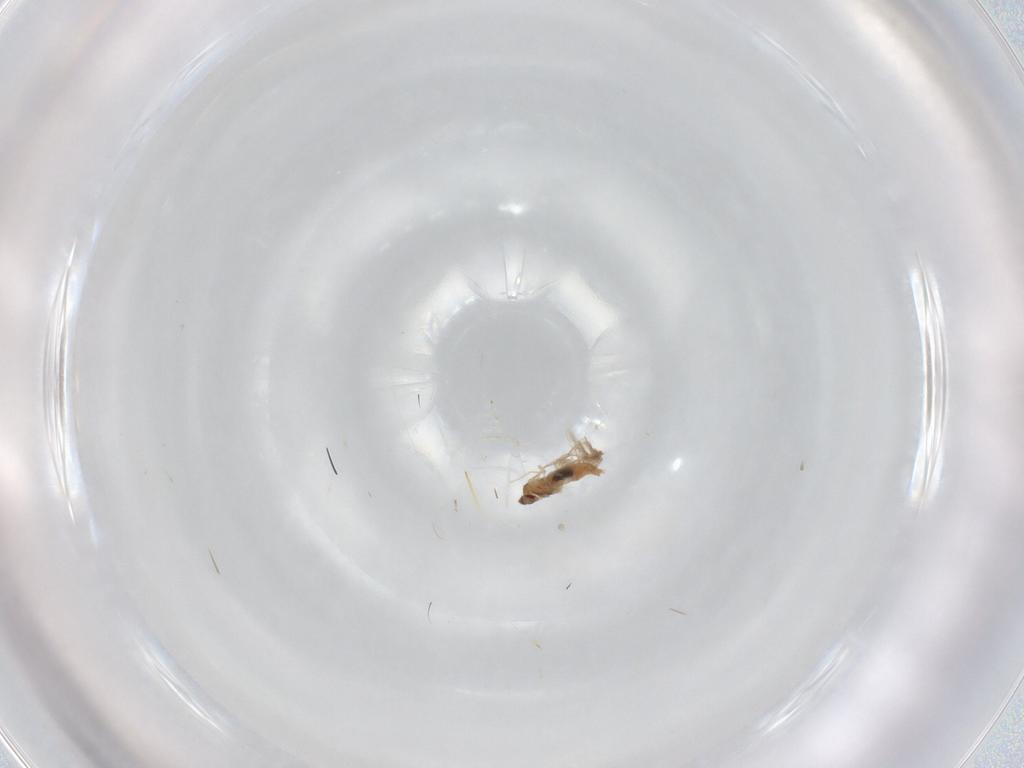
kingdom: Animalia
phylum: Arthropoda
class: Insecta
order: Diptera
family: Glossinidae
